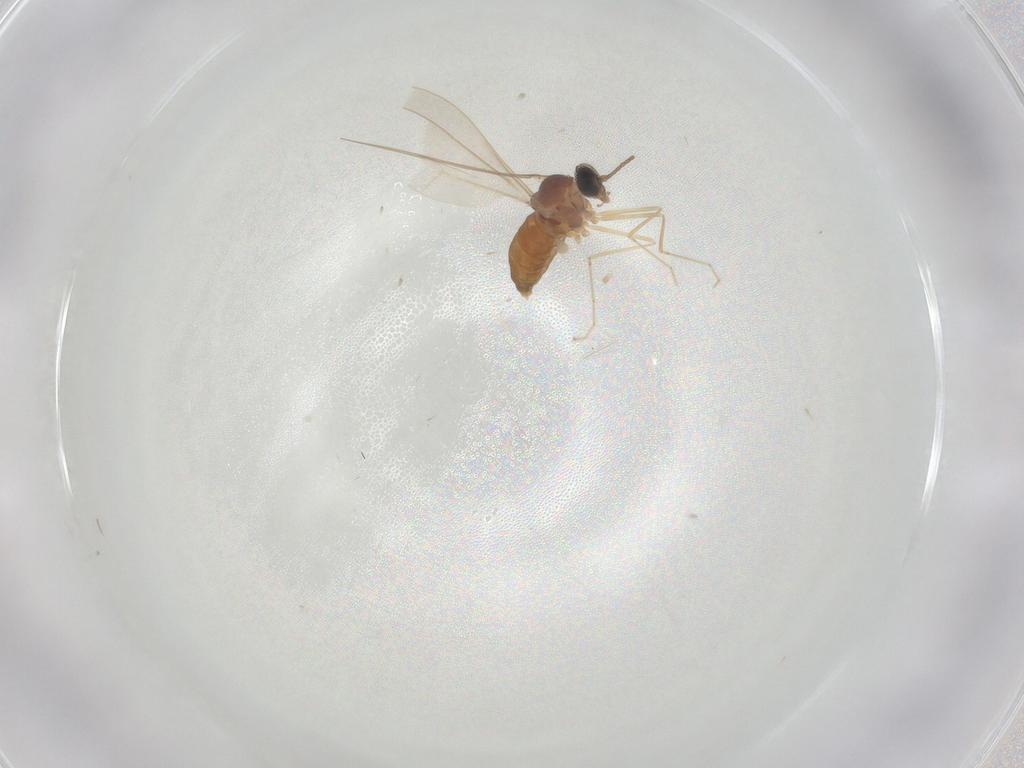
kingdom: Animalia
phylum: Arthropoda
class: Insecta
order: Diptera
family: Cecidomyiidae
